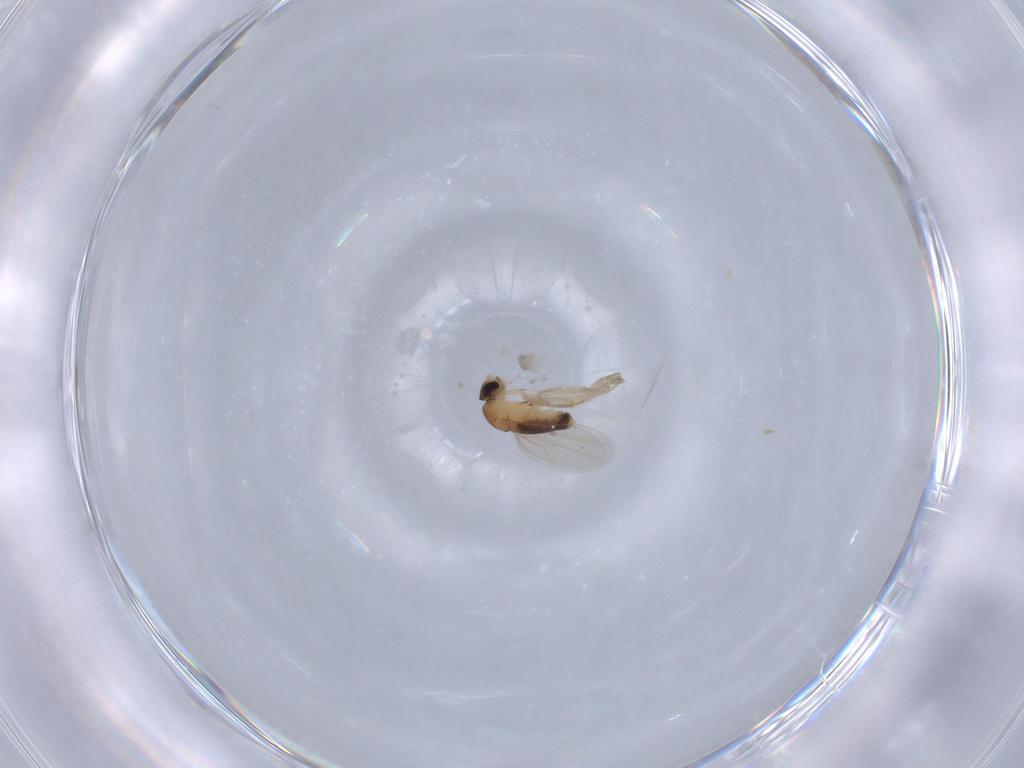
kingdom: Animalia
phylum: Arthropoda
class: Insecta
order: Diptera
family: Phoridae
